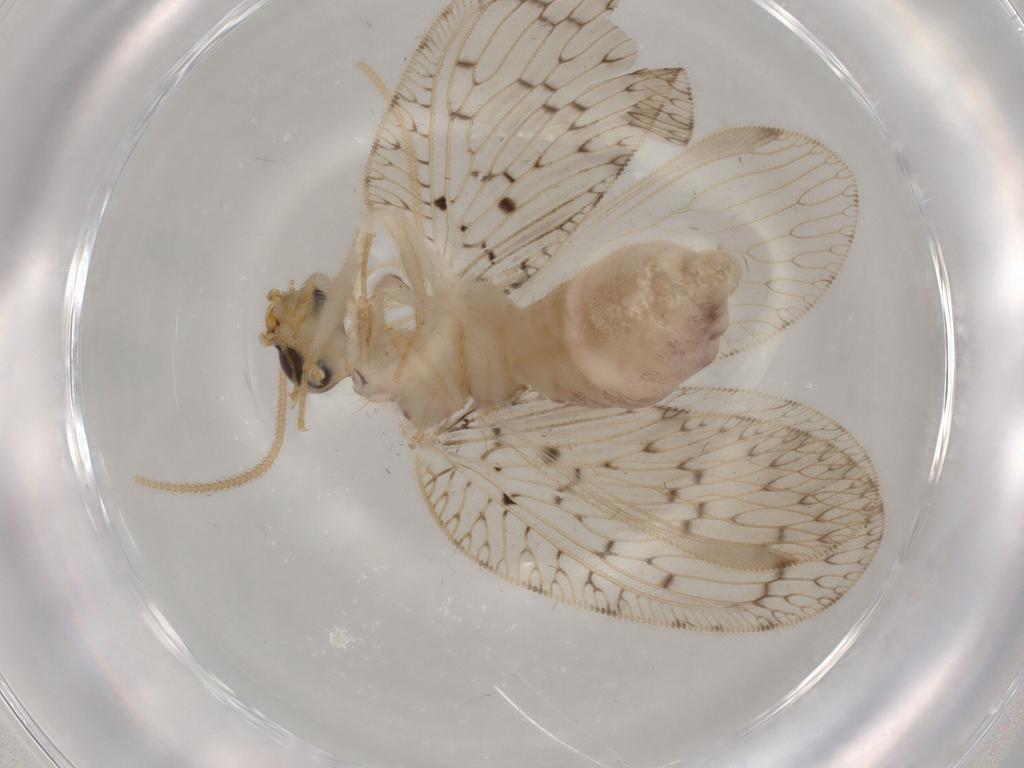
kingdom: Animalia
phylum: Arthropoda
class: Insecta
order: Neuroptera
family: Hemerobiidae
